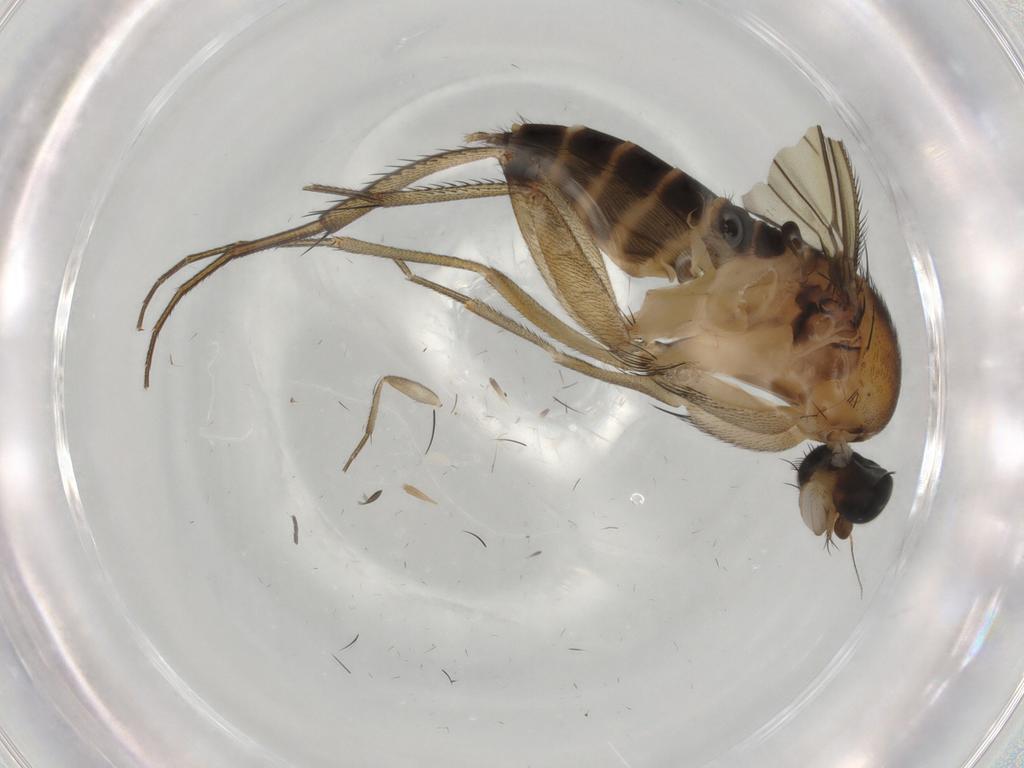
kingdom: Animalia
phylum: Arthropoda
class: Insecta
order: Diptera
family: Phoridae
